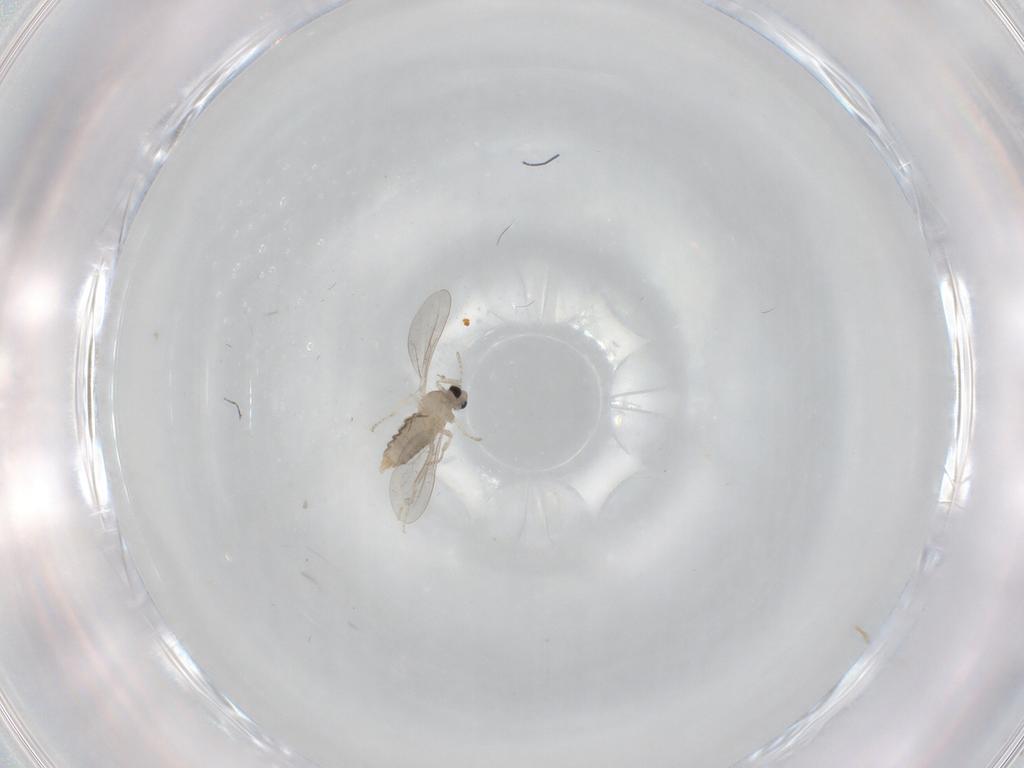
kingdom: Animalia
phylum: Arthropoda
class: Insecta
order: Diptera
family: Cecidomyiidae
